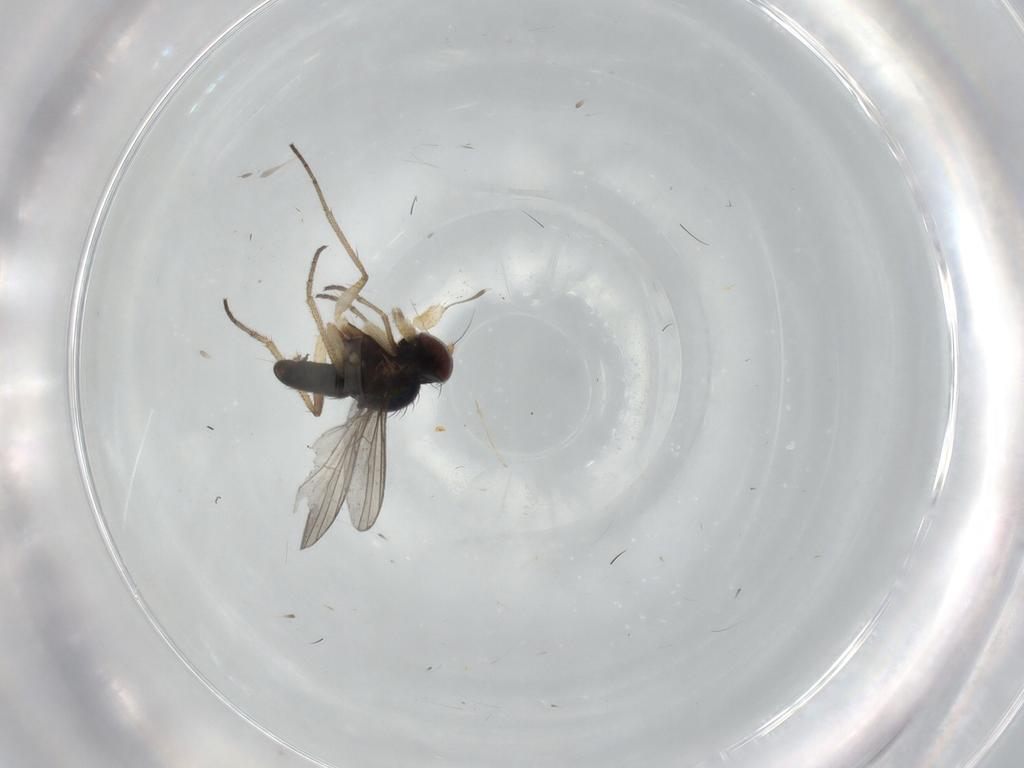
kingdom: Animalia
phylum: Arthropoda
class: Insecta
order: Diptera
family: Dolichopodidae
